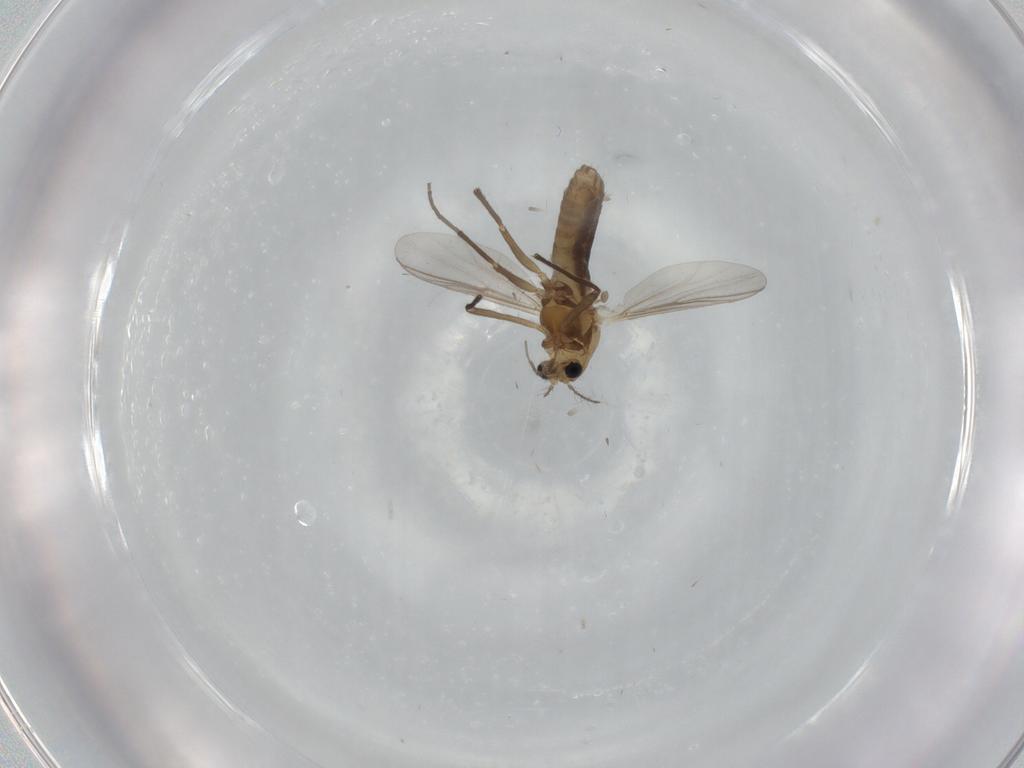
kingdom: Animalia
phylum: Arthropoda
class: Insecta
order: Diptera
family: Chironomidae
